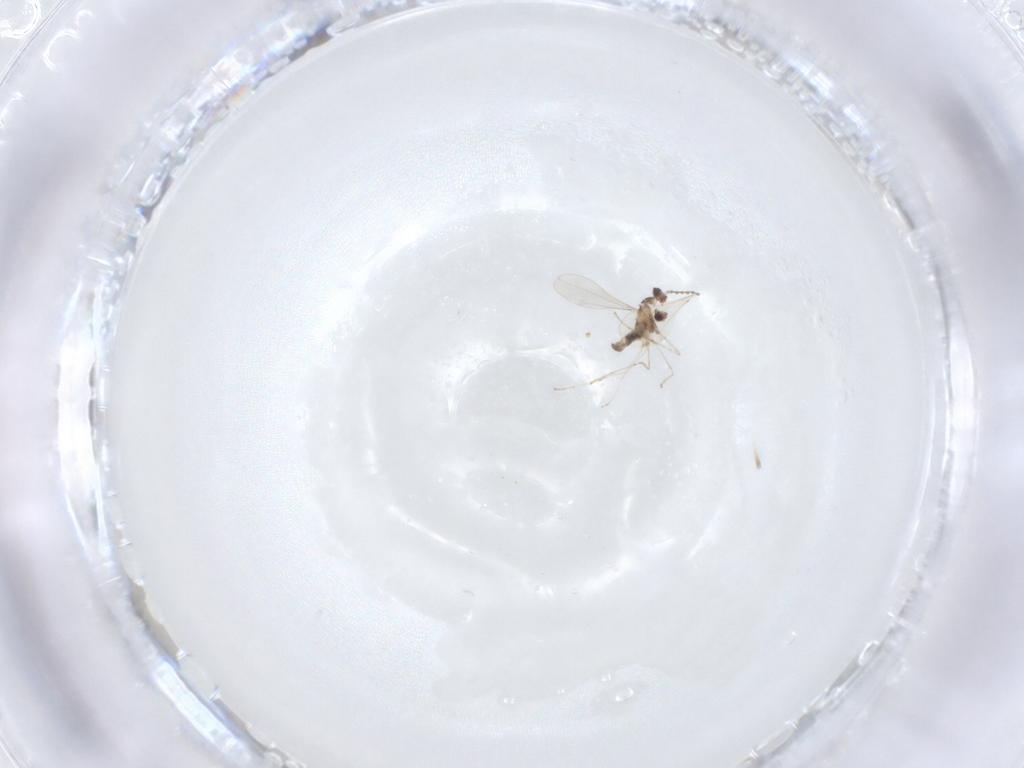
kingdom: Animalia
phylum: Arthropoda
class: Insecta
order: Diptera
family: Cecidomyiidae
